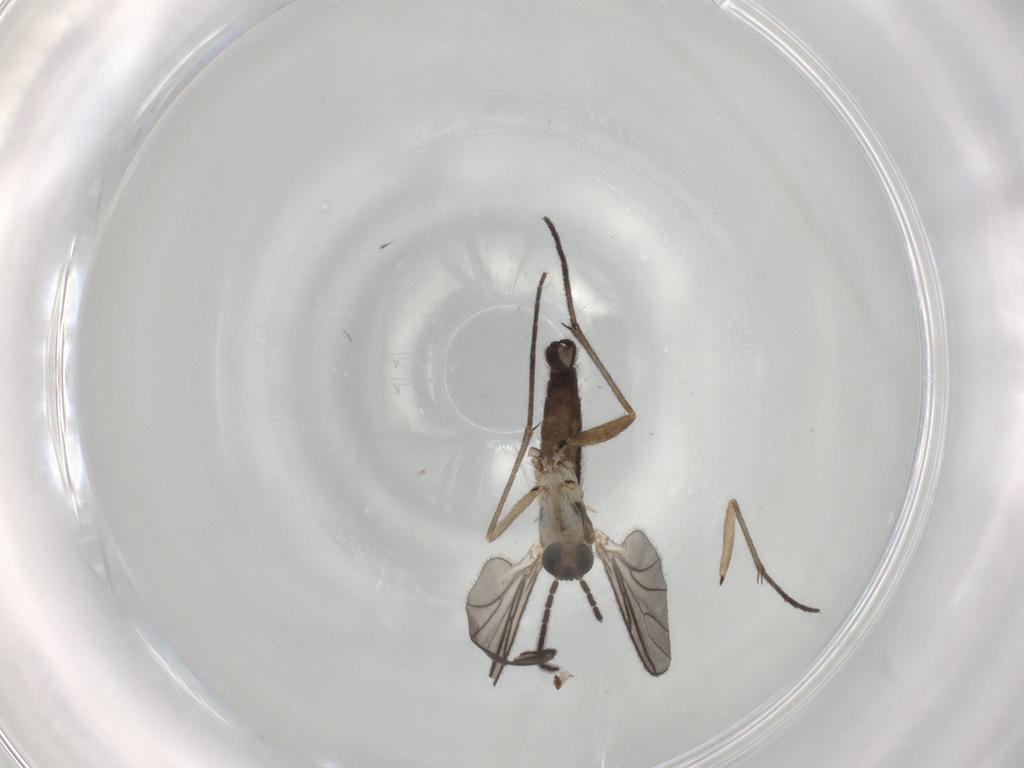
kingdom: Animalia
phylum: Arthropoda
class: Insecta
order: Diptera
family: Sciaridae
